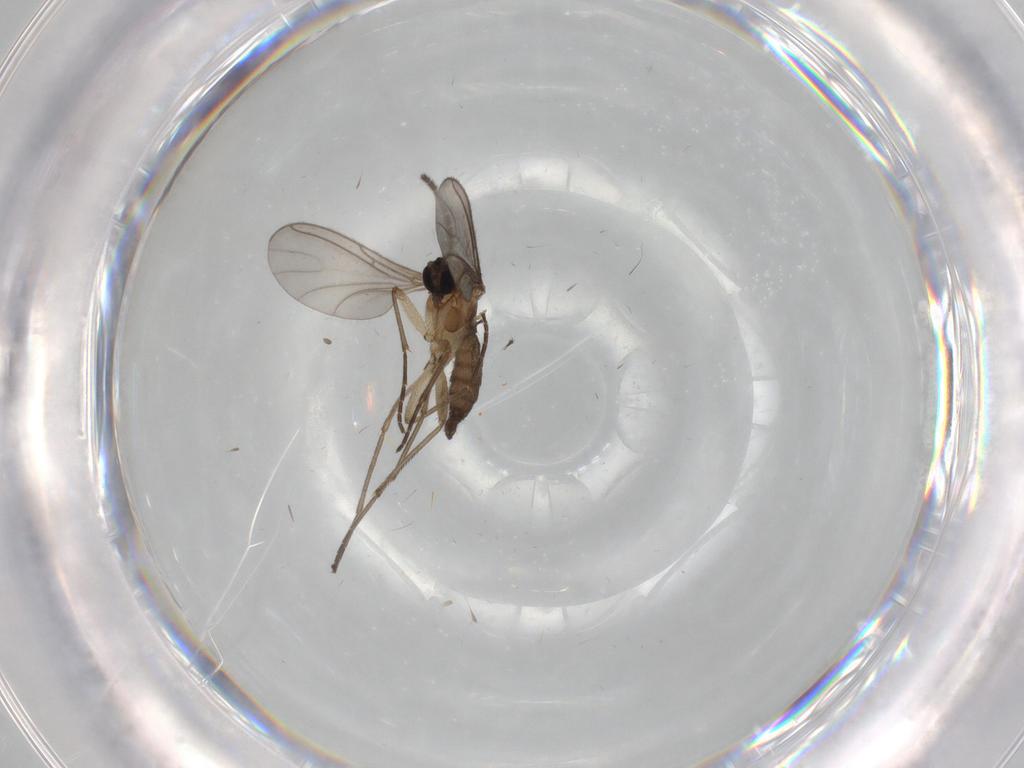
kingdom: Animalia
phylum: Arthropoda
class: Insecta
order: Diptera
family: Sciaridae
